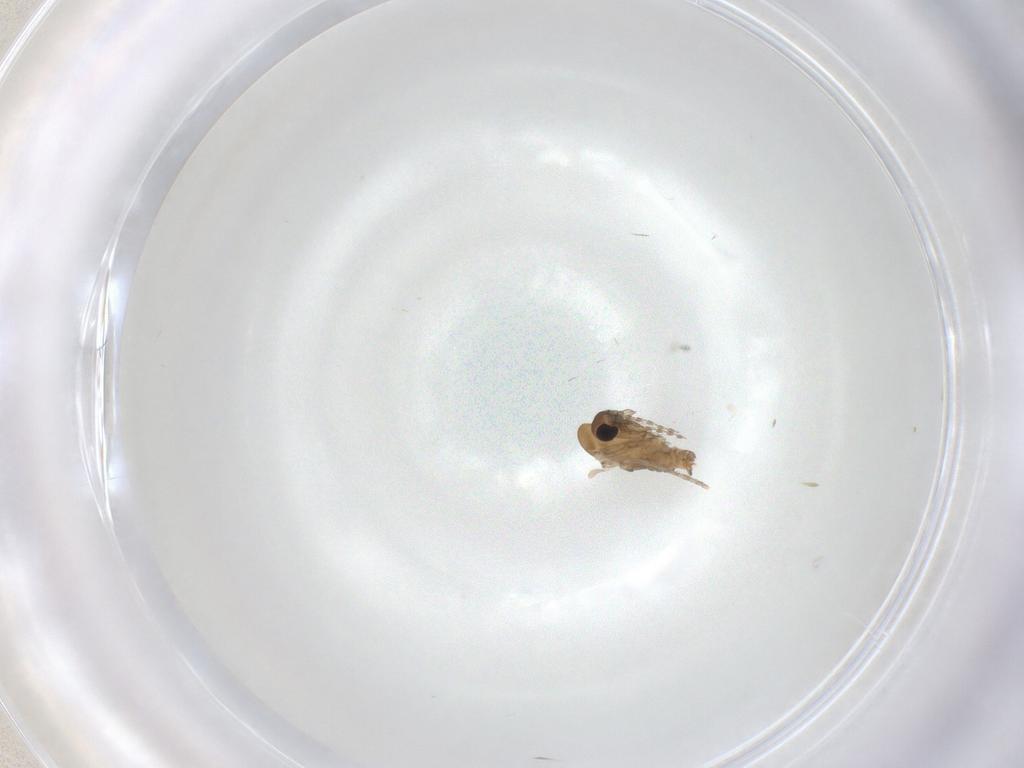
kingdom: Animalia
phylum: Arthropoda
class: Insecta
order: Diptera
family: Psychodidae
